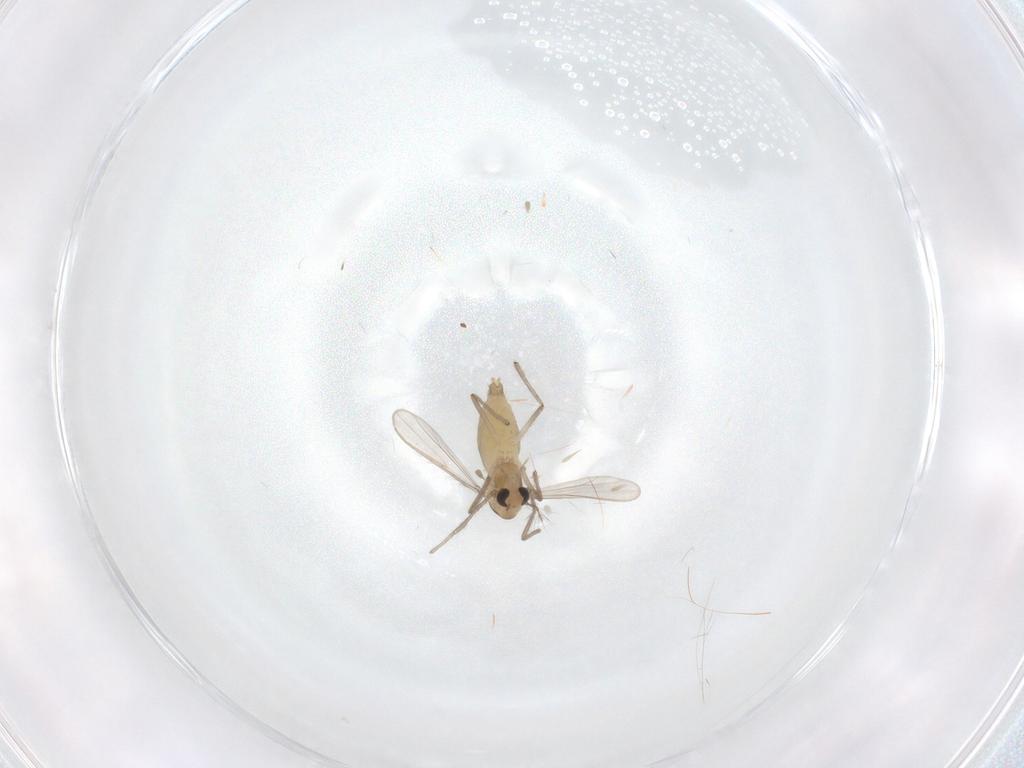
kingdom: Animalia
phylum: Arthropoda
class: Insecta
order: Diptera
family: Chironomidae
